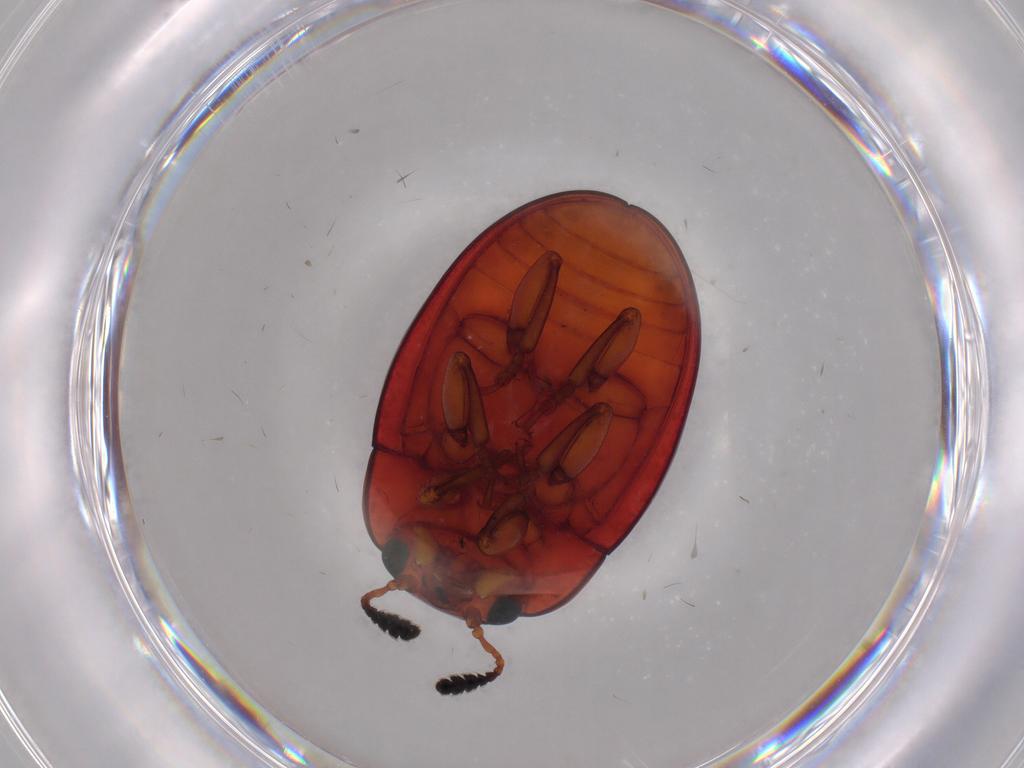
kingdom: Animalia
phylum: Arthropoda
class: Insecta
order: Coleoptera
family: Erotylidae
